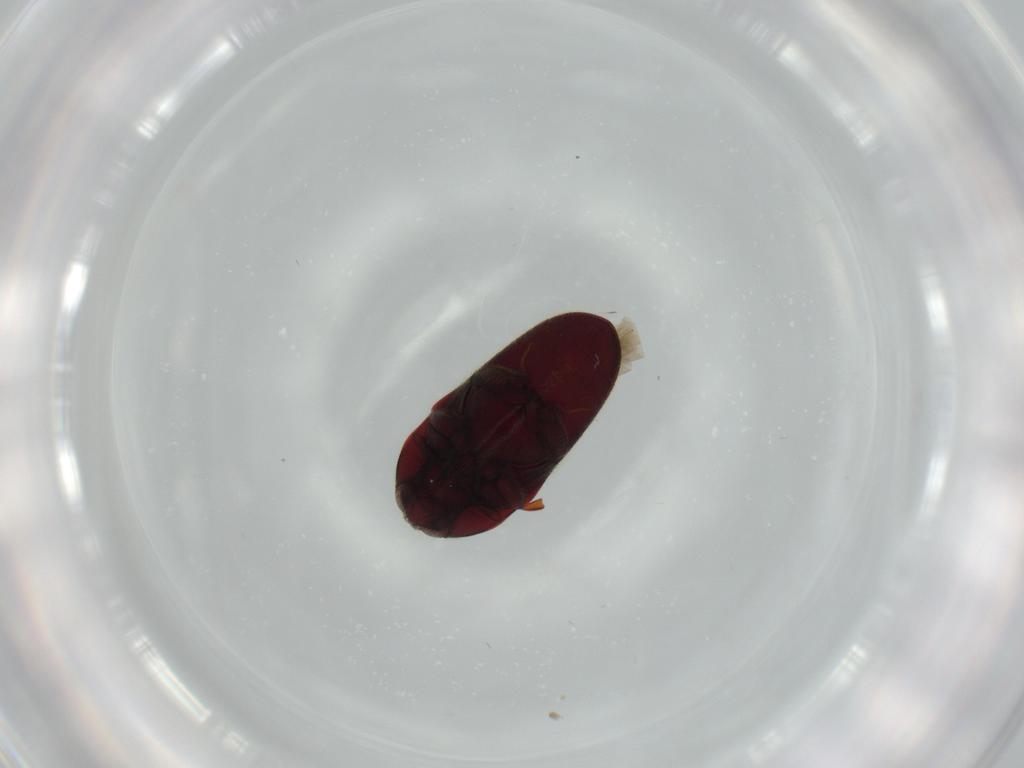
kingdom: Animalia
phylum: Arthropoda
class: Insecta
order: Coleoptera
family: Throscidae
